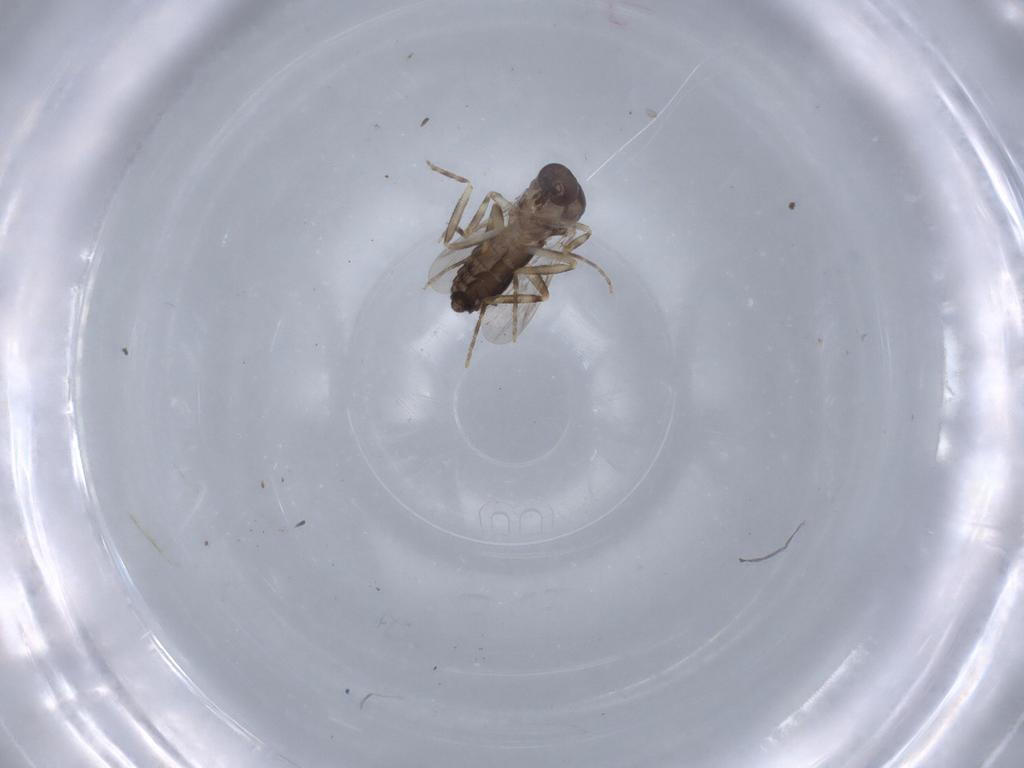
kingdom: Animalia
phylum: Arthropoda
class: Insecta
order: Diptera
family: Ceratopogonidae
